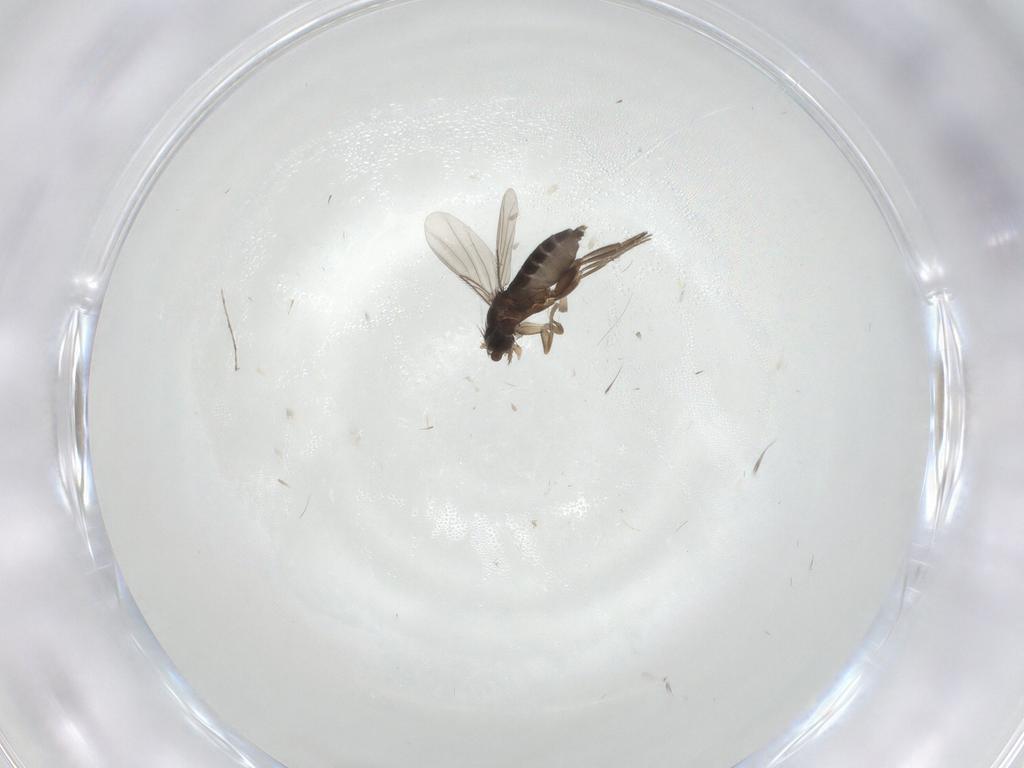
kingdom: Animalia
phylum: Arthropoda
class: Insecta
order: Diptera
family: Phoridae
